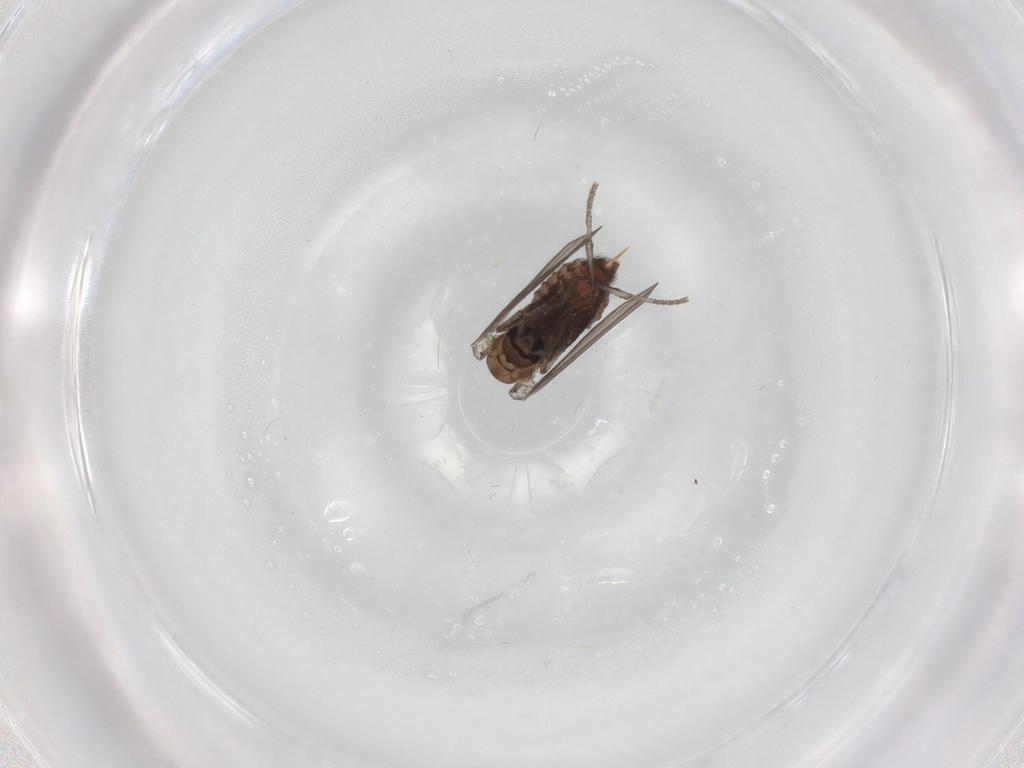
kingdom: Animalia
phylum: Arthropoda
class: Insecta
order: Diptera
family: Psychodidae
